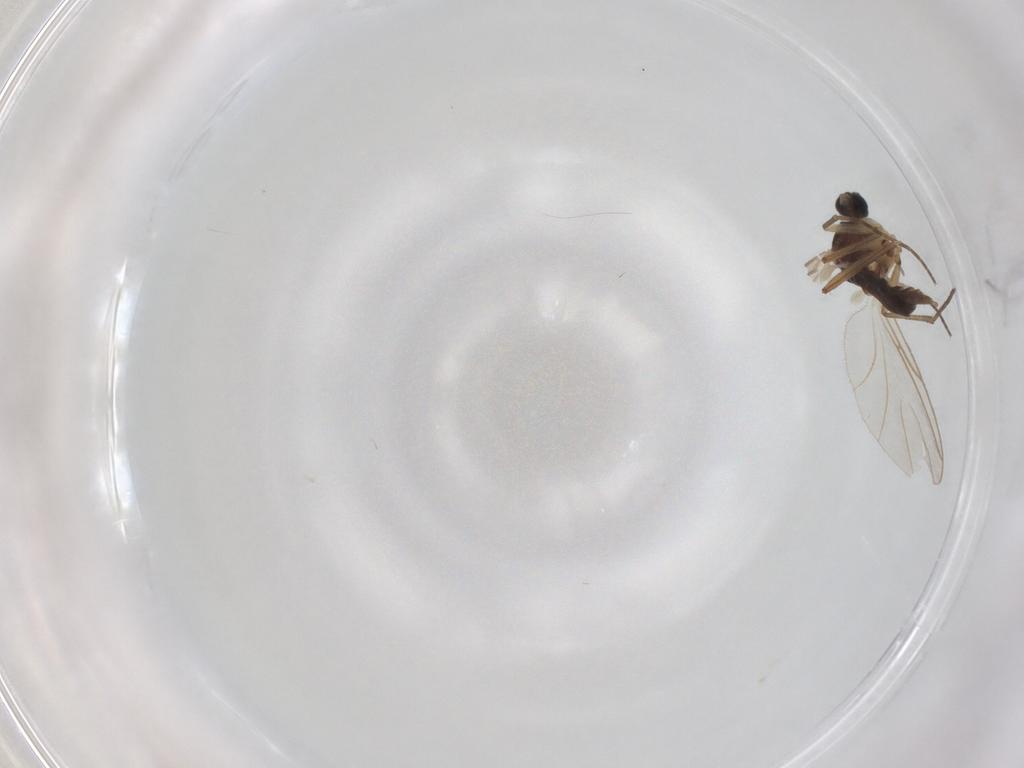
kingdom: Animalia
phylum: Arthropoda
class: Insecta
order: Diptera
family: Sciaridae
